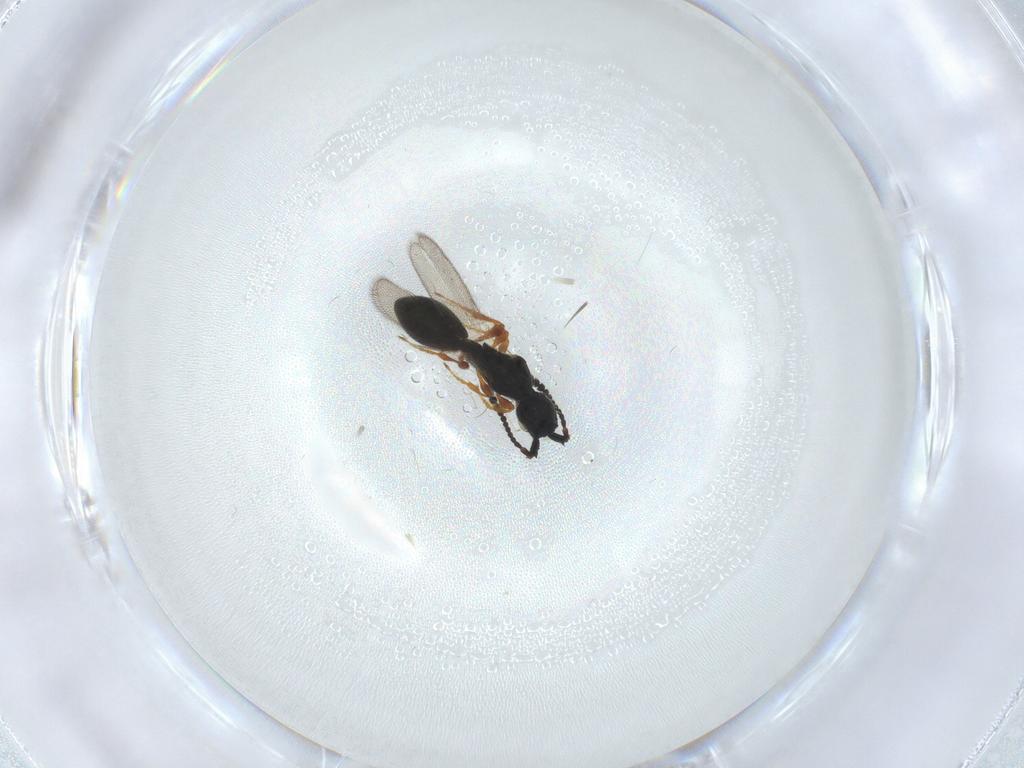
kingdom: Animalia
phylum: Arthropoda
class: Insecta
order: Hymenoptera
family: Diapriidae
